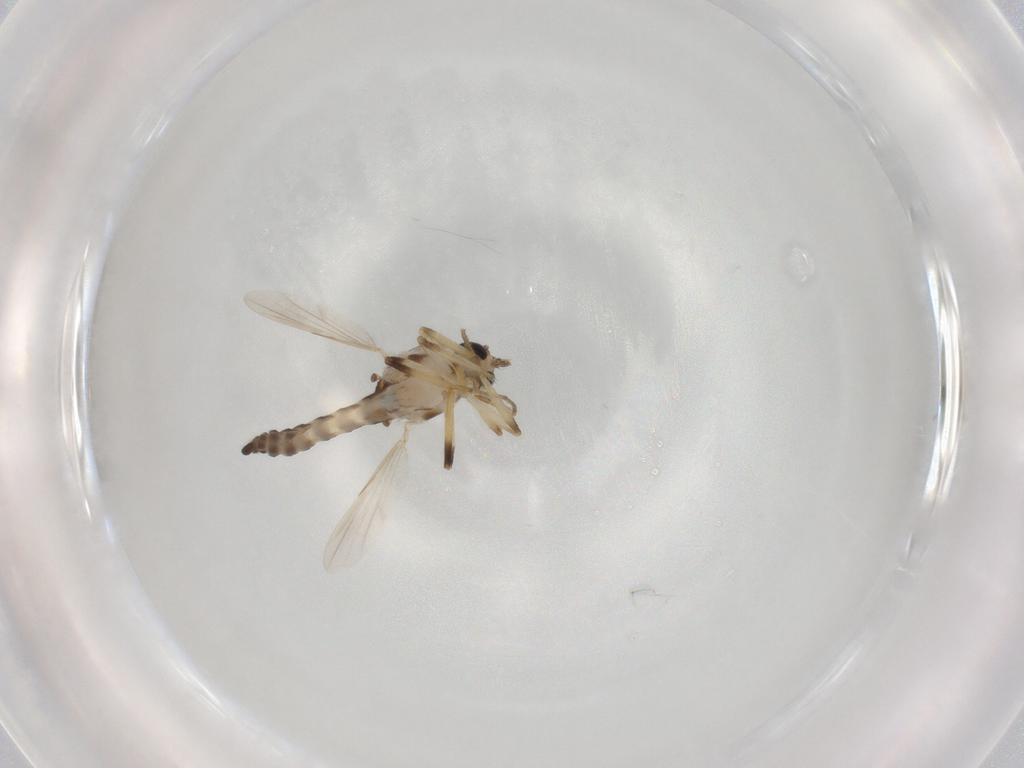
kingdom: Animalia
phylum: Arthropoda
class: Insecta
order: Diptera
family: Ceratopogonidae
